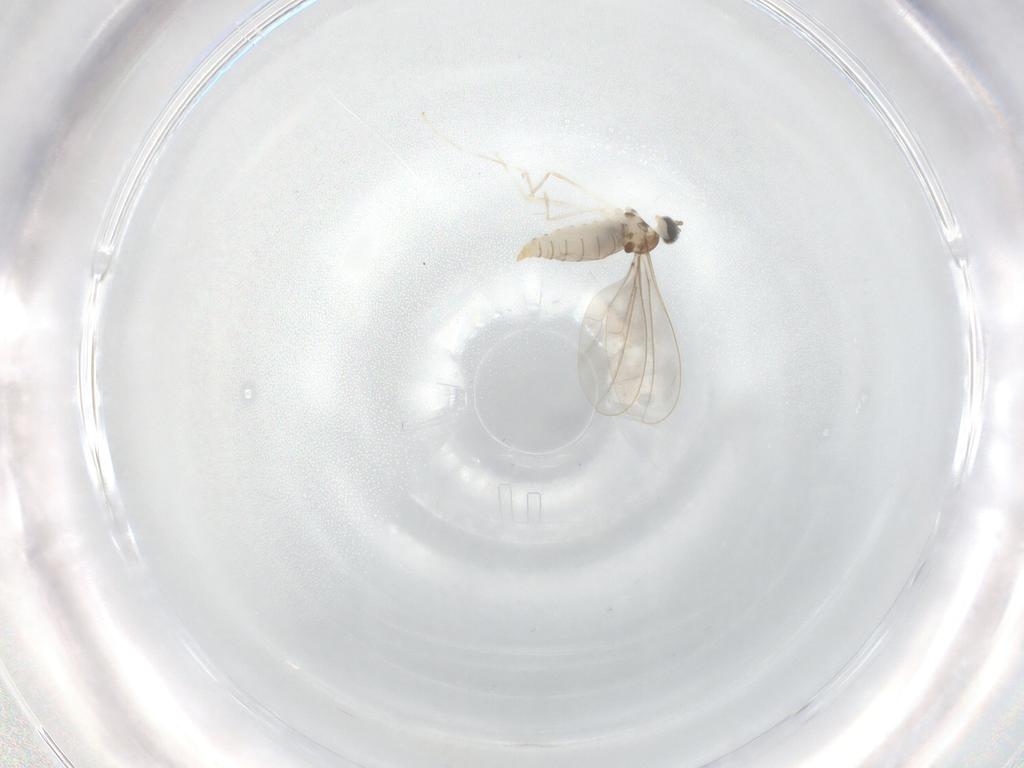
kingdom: Animalia
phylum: Arthropoda
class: Insecta
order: Diptera
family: Cecidomyiidae
